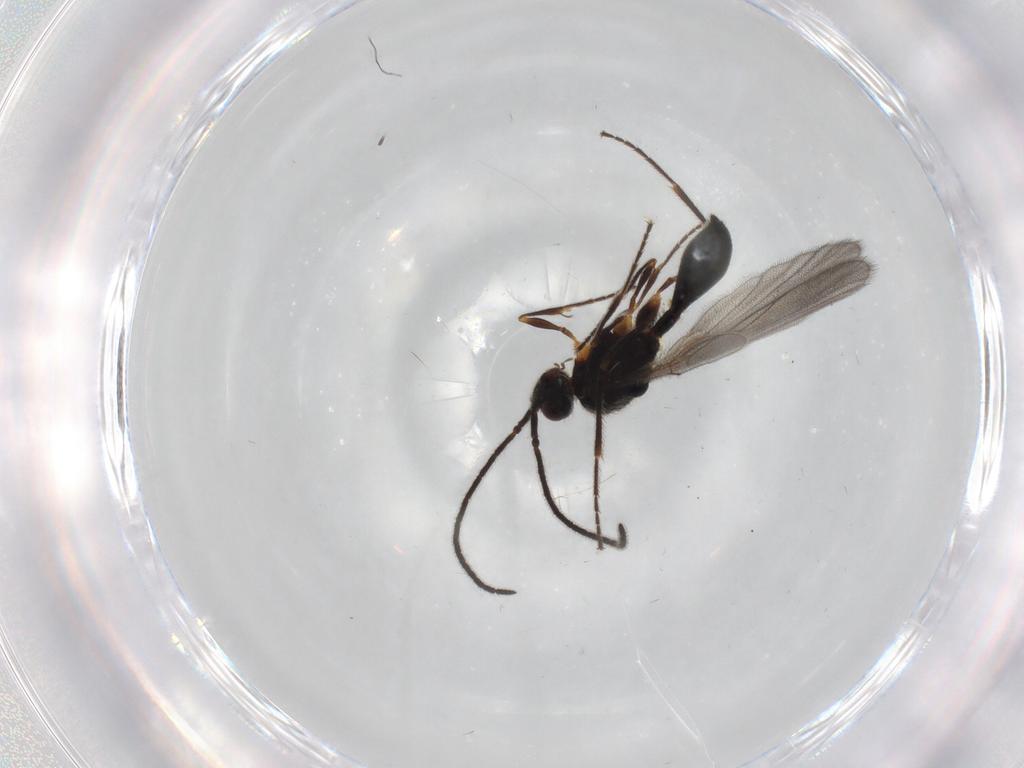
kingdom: Animalia
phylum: Arthropoda
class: Insecta
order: Hymenoptera
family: Diapriidae
